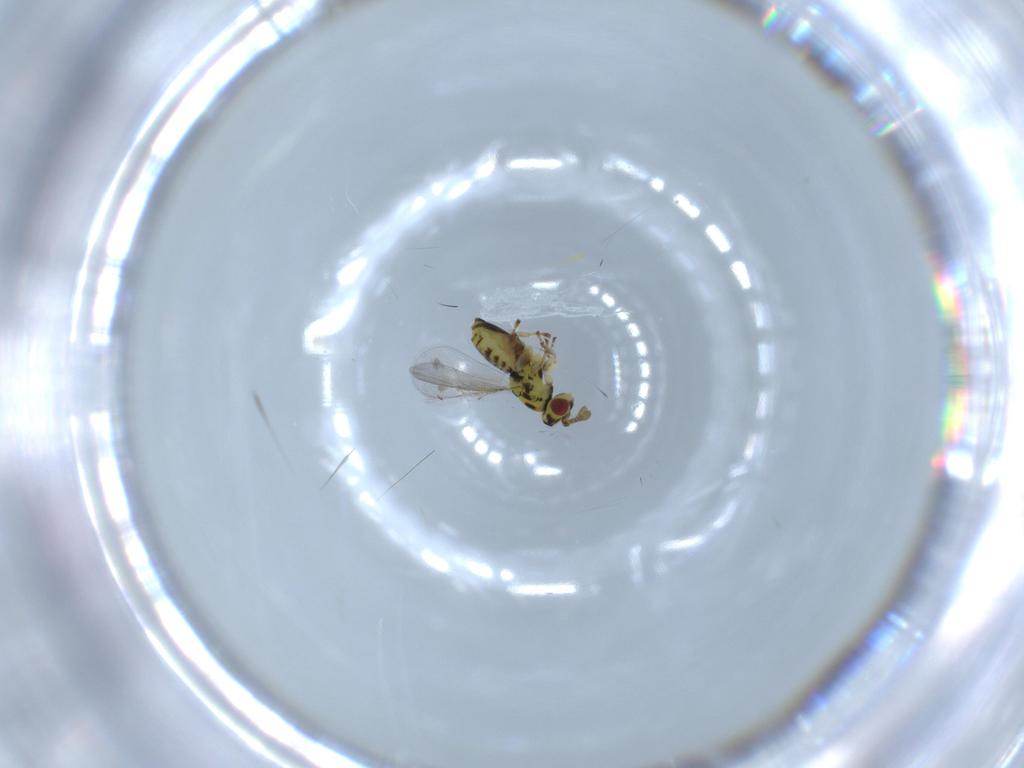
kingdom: Animalia
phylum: Arthropoda
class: Insecta
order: Hymenoptera
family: Eulophidae
